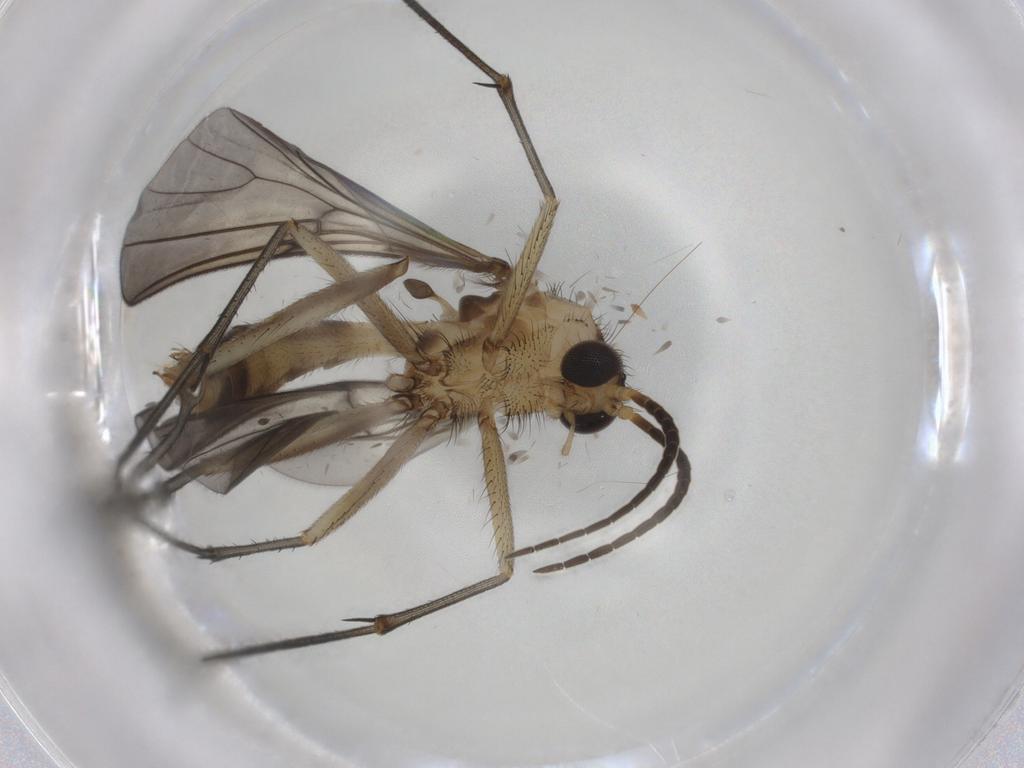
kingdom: Animalia
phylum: Arthropoda
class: Insecta
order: Diptera
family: Mycetophilidae
